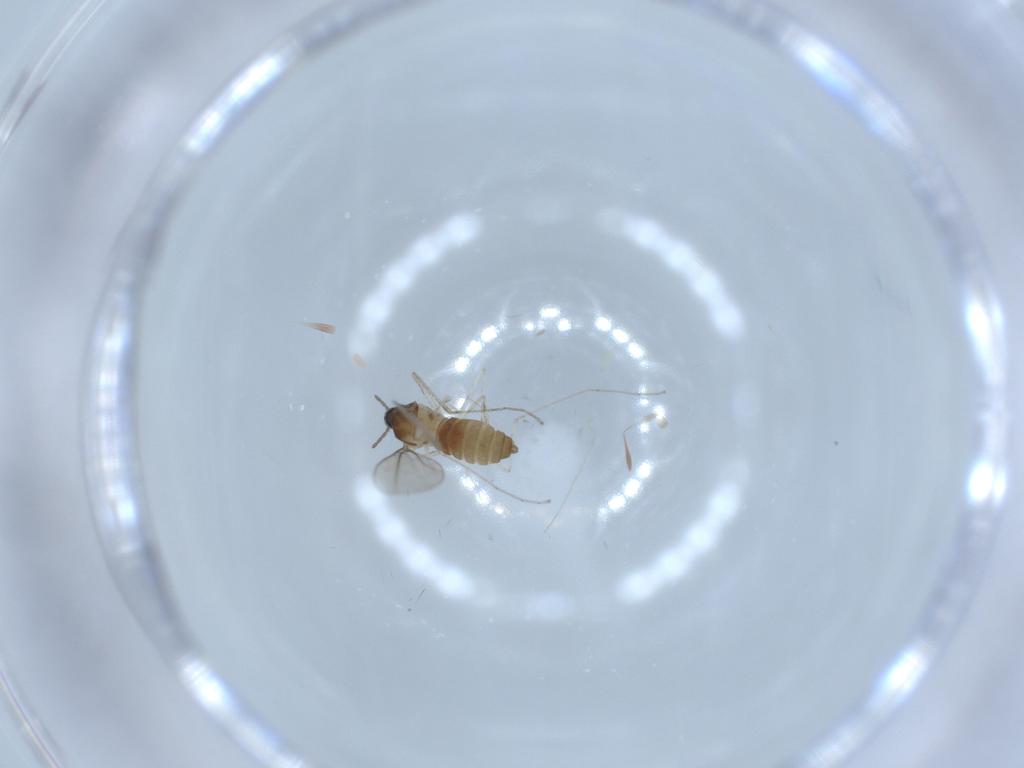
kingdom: Animalia
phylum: Arthropoda
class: Insecta
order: Diptera
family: Cecidomyiidae
